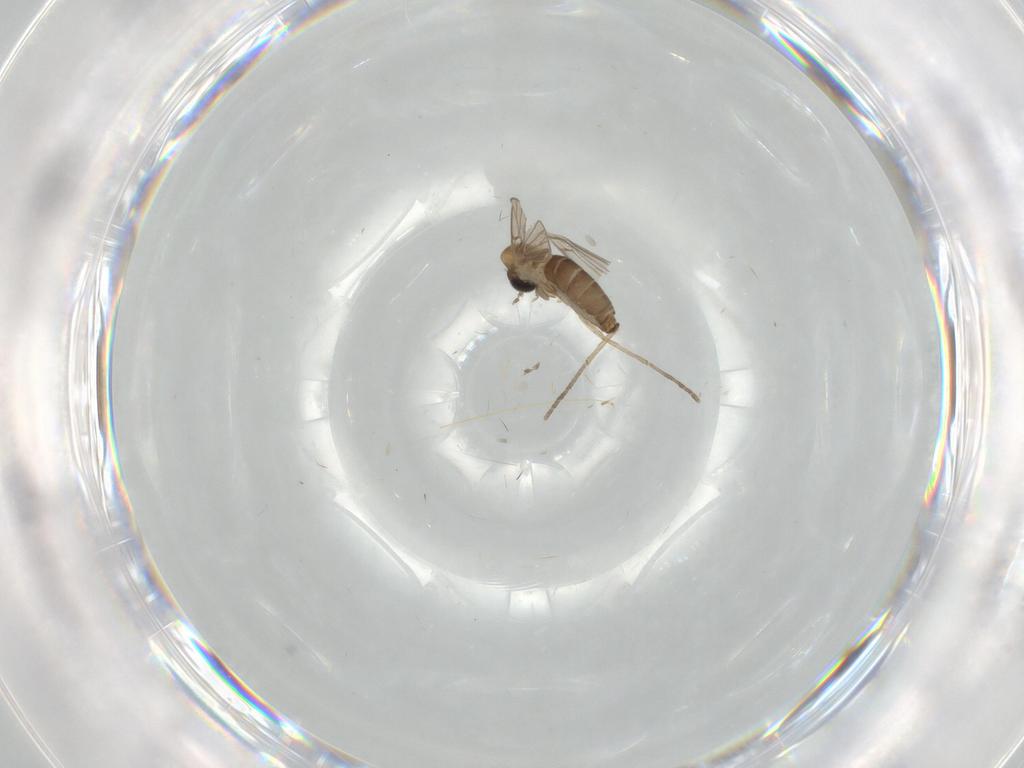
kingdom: Animalia
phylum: Arthropoda
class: Insecta
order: Diptera
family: Psychodidae
